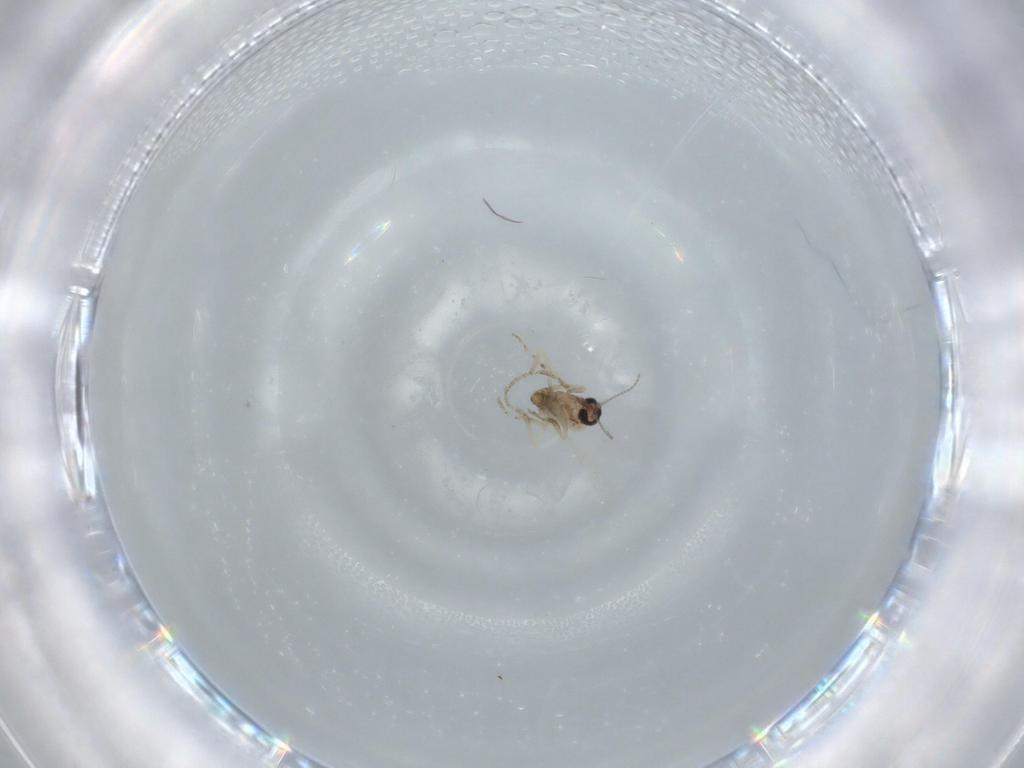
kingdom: Animalia
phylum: Arthropoda
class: Insecta
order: Diptera
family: Ceratopogonidae
